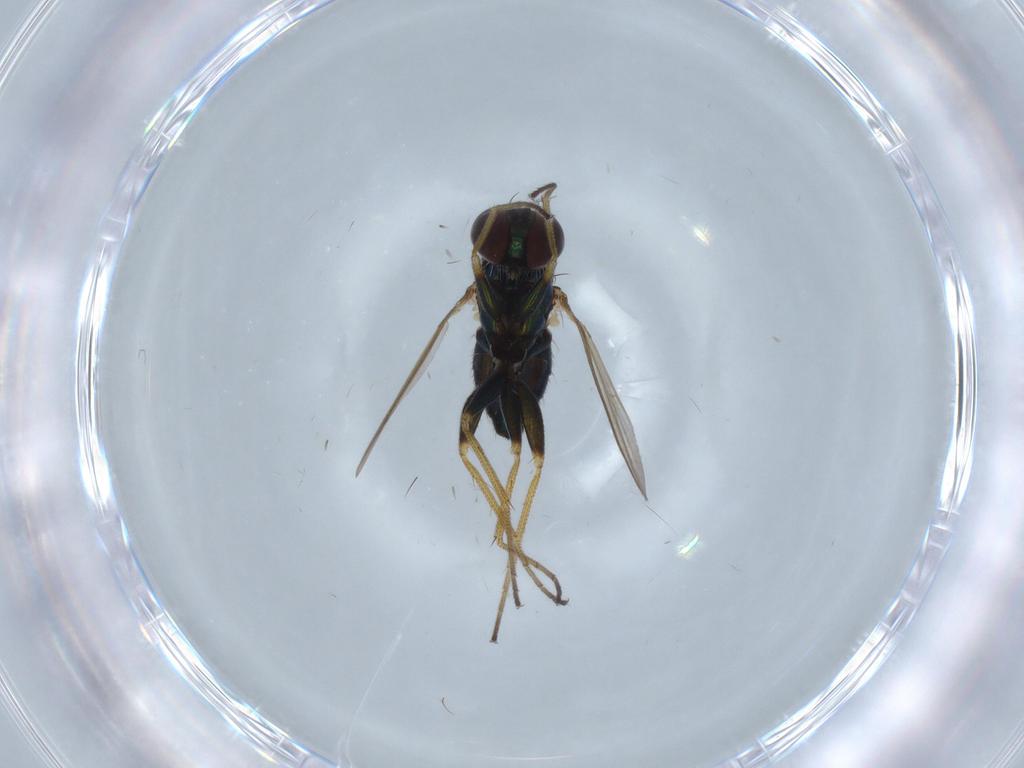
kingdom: Animalia
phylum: Arthropoda
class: Insecta
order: Diptera
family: Dolichopodidae
